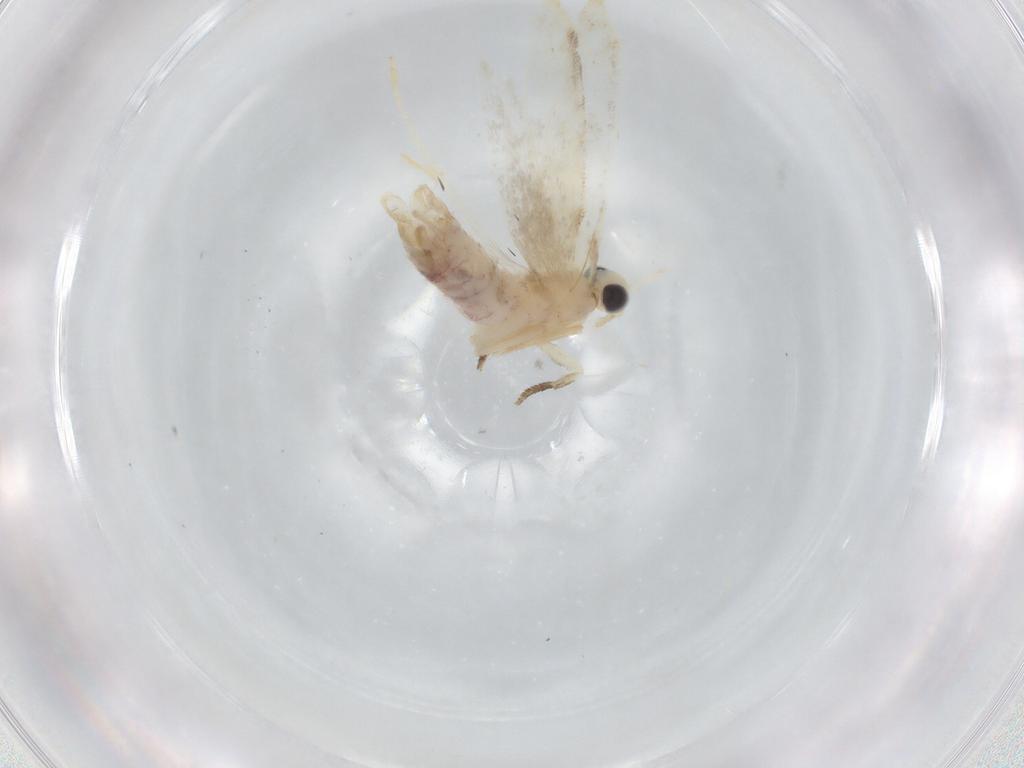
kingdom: Animalia
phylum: Arthropoda
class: Insecta
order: Lepidoptera
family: Dryadaulidae
